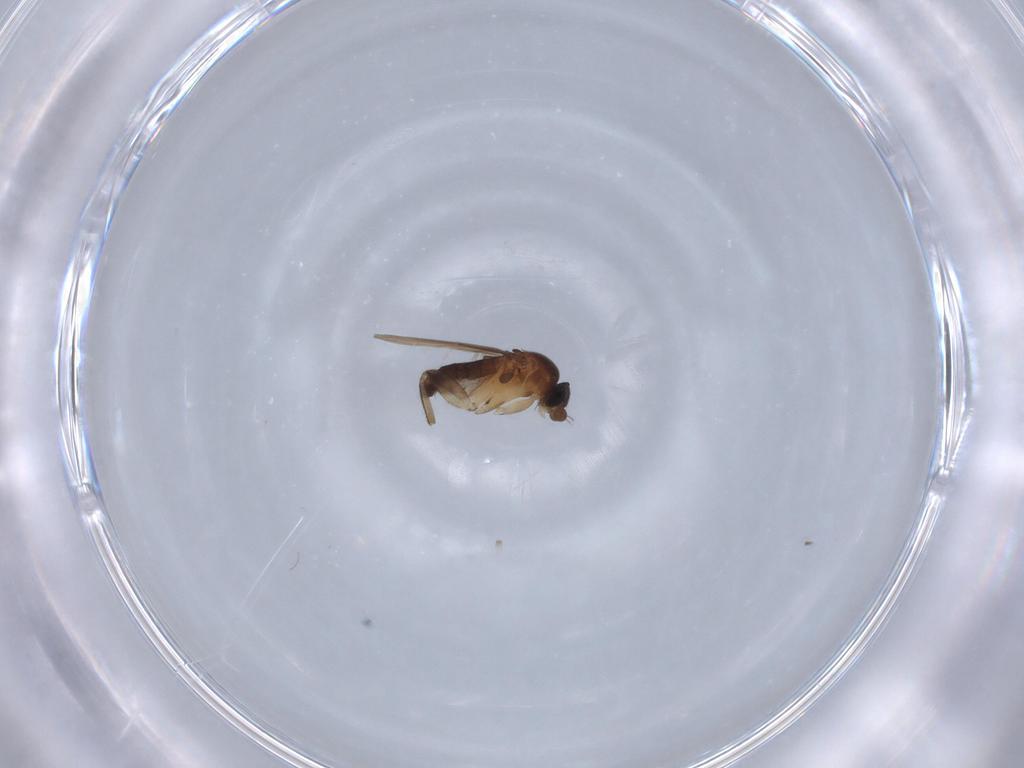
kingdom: Animalia
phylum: Arthropoda
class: Insecta
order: Diptera
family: Phoridae
